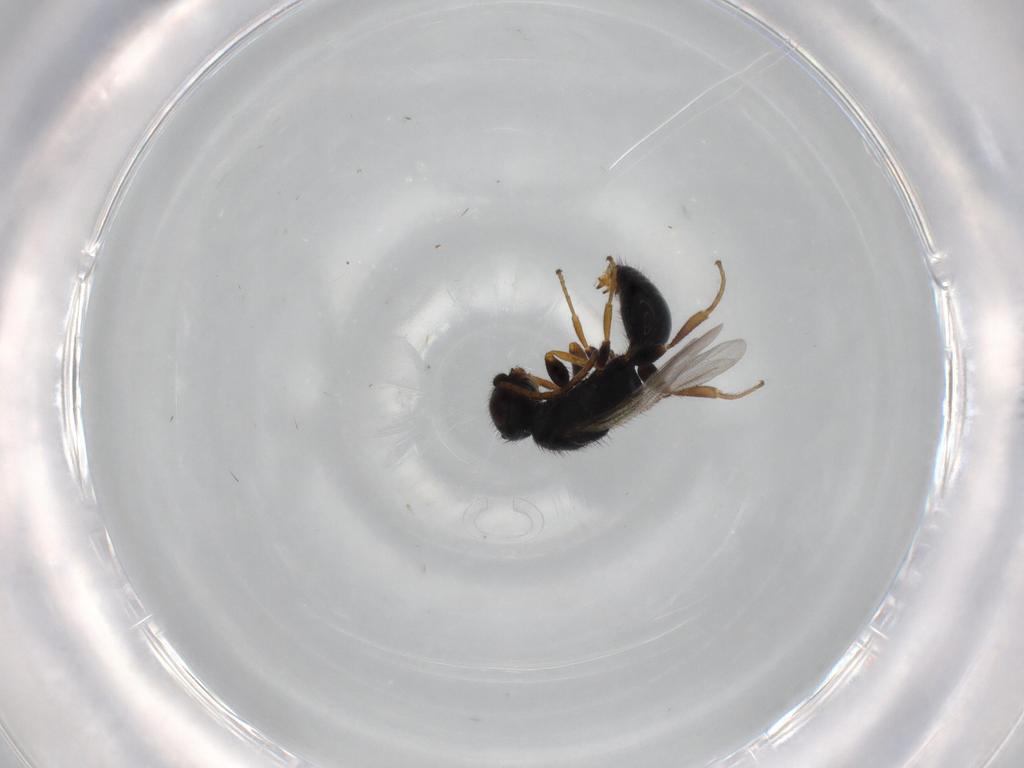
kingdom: Animalia
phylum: Arthropoda
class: Insecta
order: Hymenoptera
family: Bethylidae
